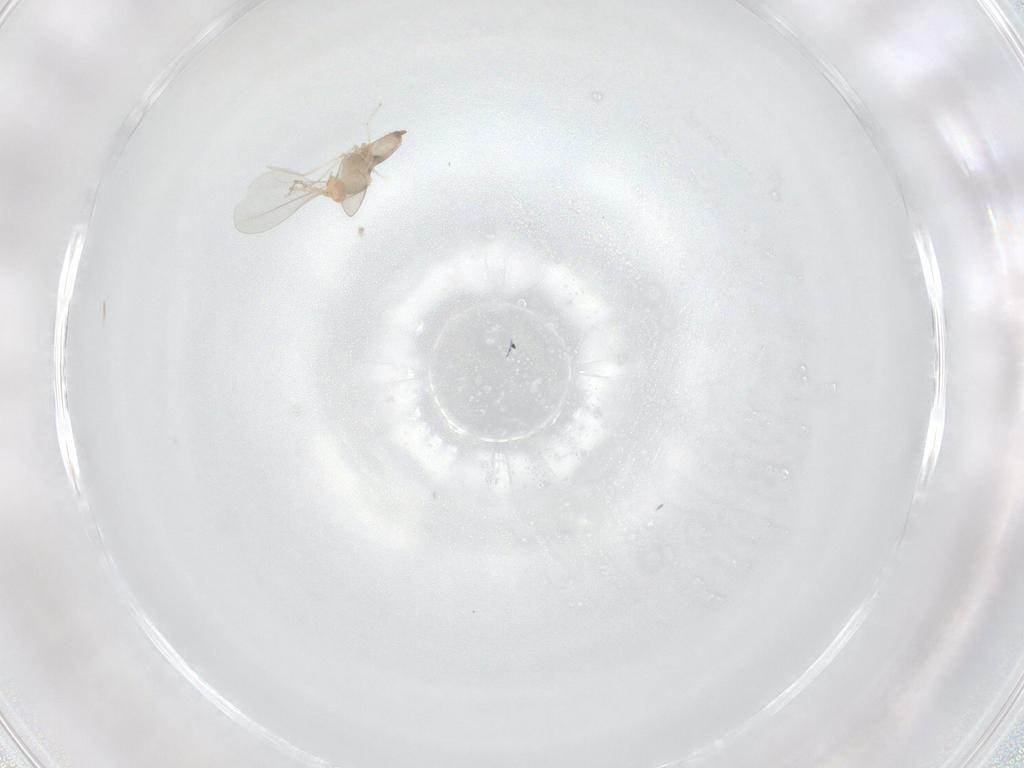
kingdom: Animalia
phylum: Arthropoda
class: Insecta
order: Diptera
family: Cecidomyiidae
